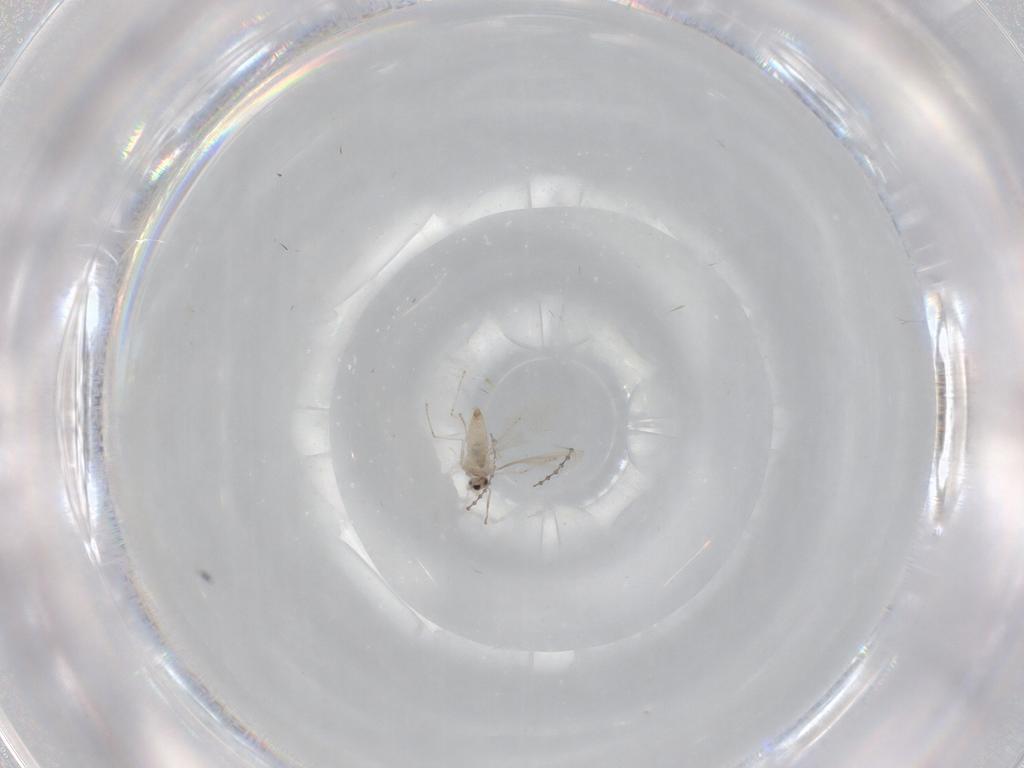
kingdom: Animalia
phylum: Arthropoda
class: Insecta
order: Diptera
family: Cecidomyiidae
